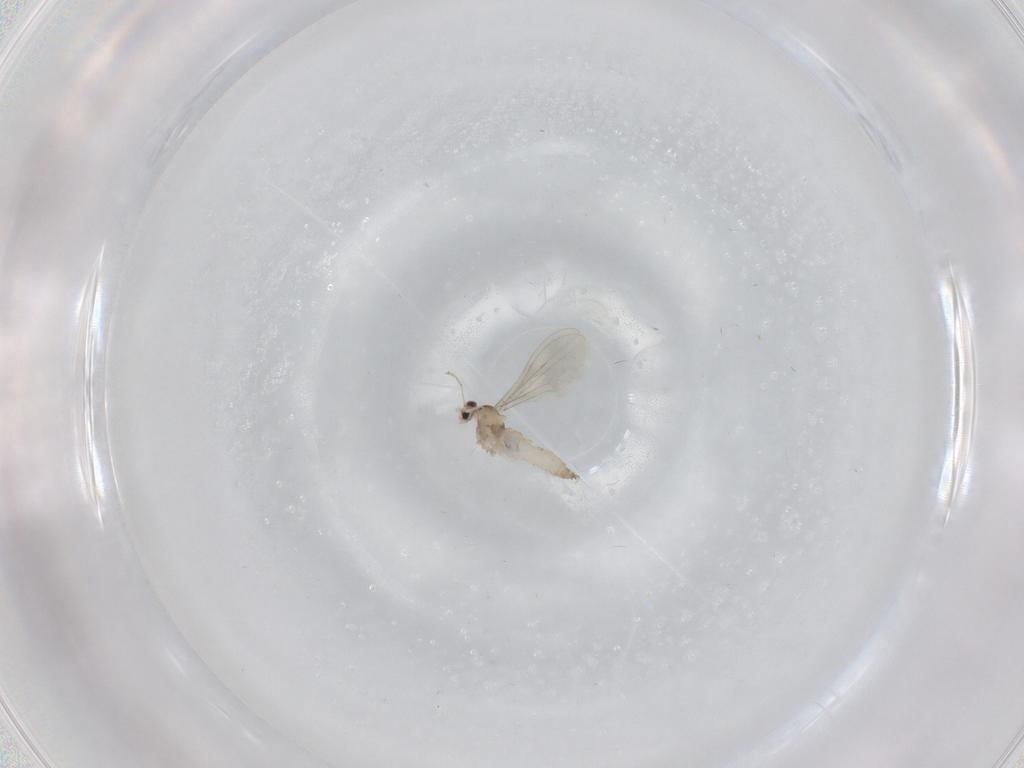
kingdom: Animalia
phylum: Arthropoda
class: Insecta
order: Diptera
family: Cecidomyiidae
